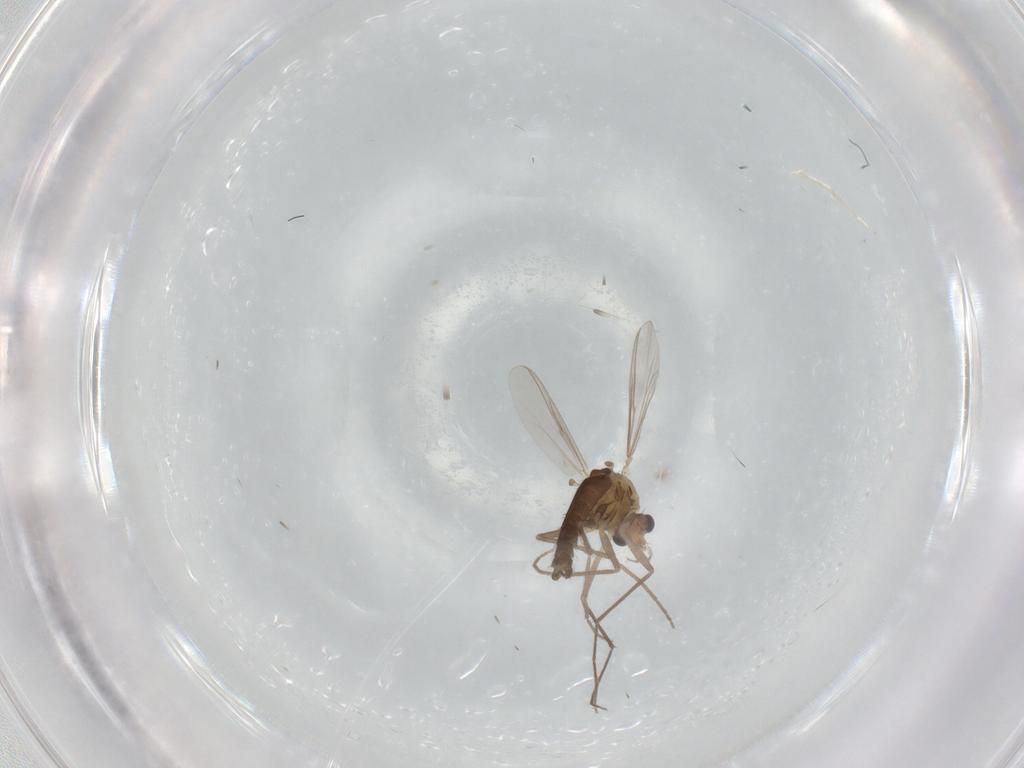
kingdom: Animalia
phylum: Arthropoda
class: Insecta
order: Diptera
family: Chironomidae
